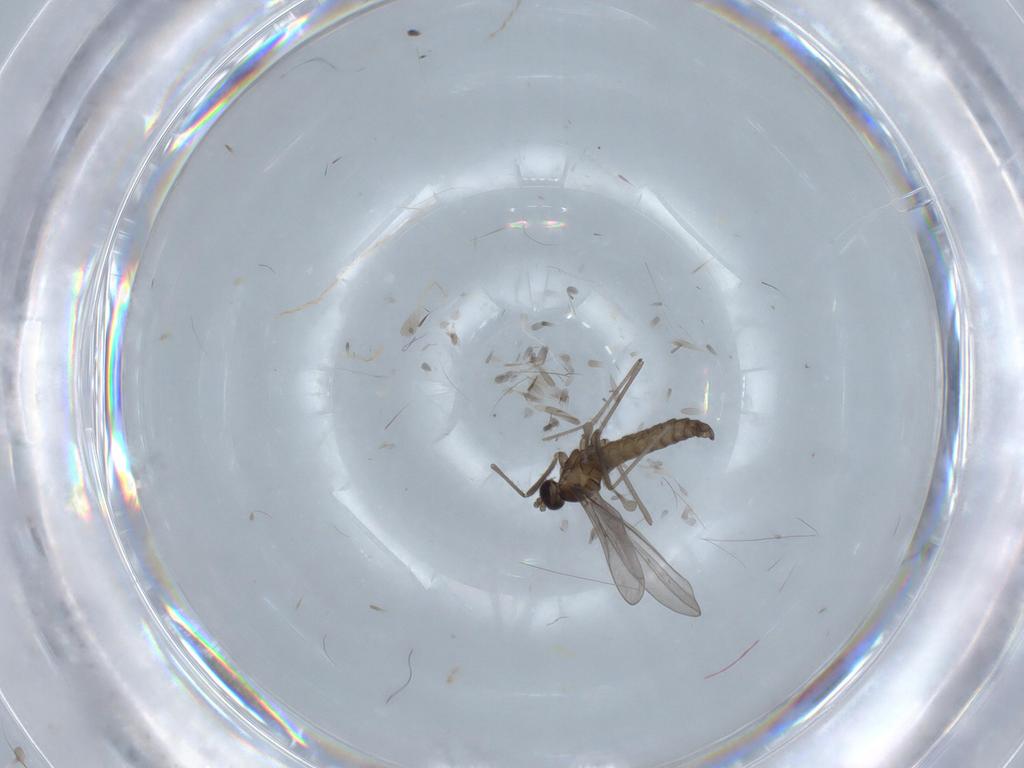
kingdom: Animalia
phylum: Arthropoda
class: Insecta
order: Diptera
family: Cecidomyiidae
